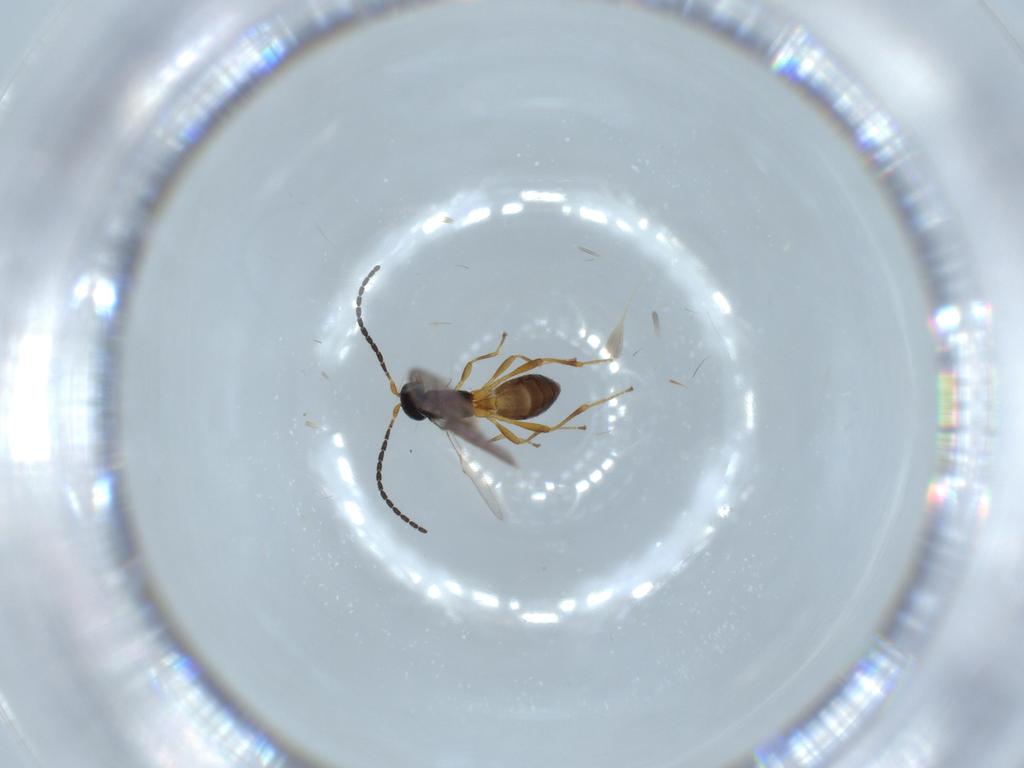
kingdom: Animalia
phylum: Arthropoda
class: Insecta
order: Hymenoptera
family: Braconidae
